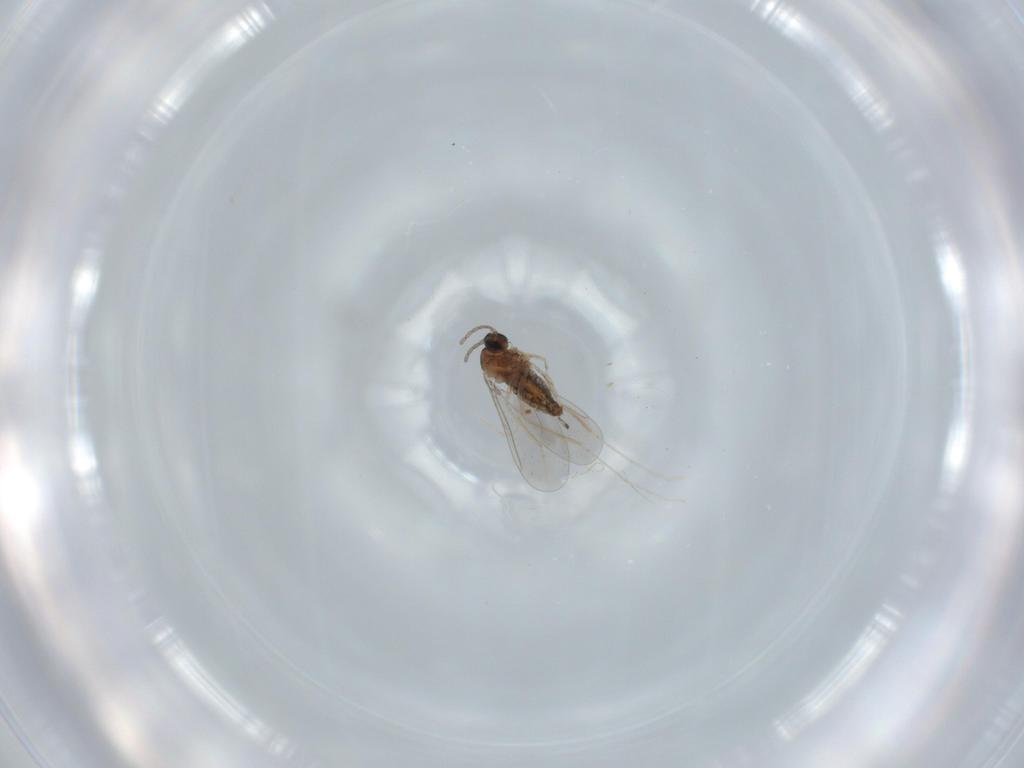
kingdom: Animalia
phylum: Arthropoda
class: Insecta
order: Diptera
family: Cecidomyiidae
